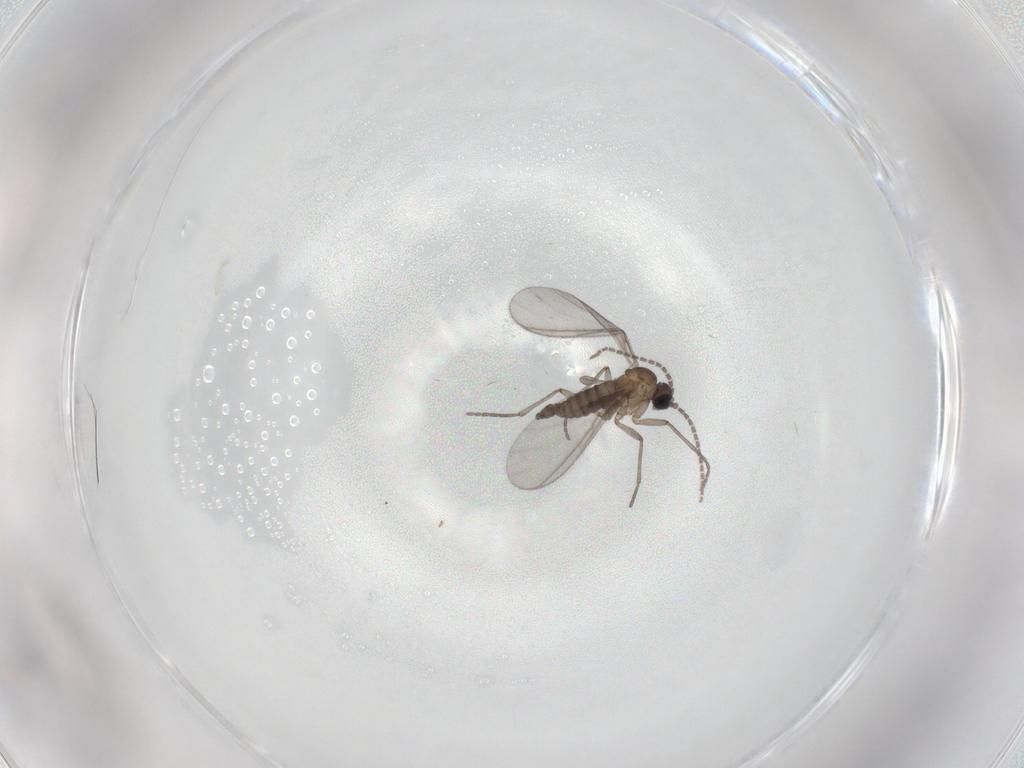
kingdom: Animalia
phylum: Arthropoda
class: Insecta
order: Diptera
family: Sciaridae
